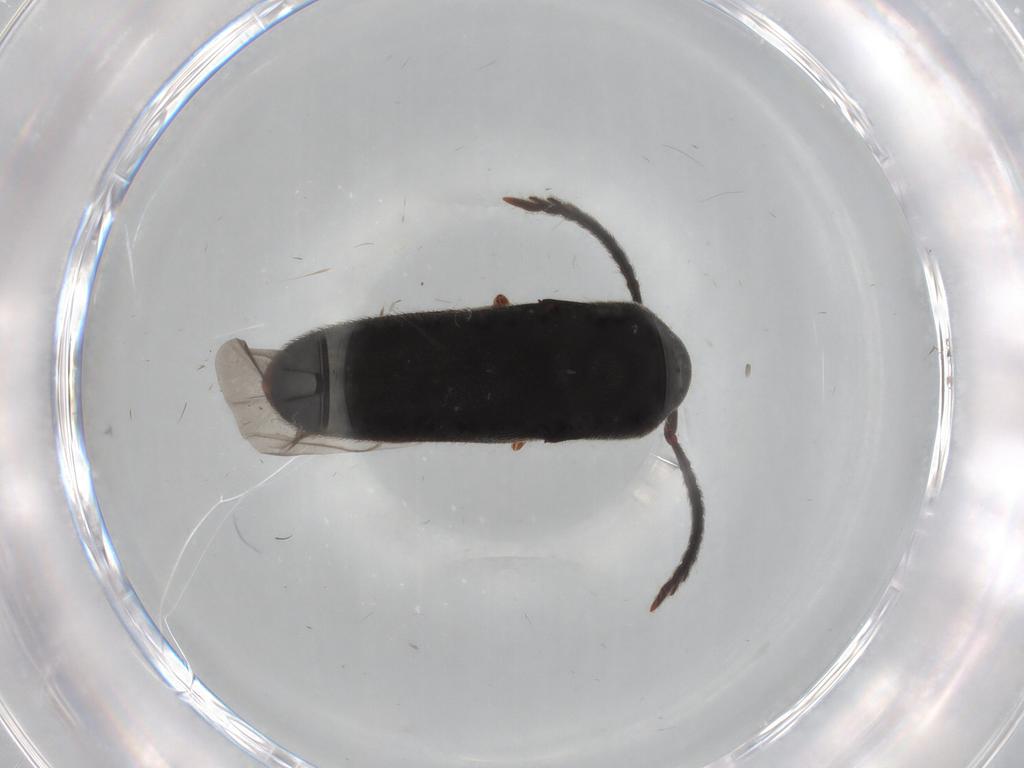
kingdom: Animalia
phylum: Arthropoda
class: Insecta
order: Coleoptera
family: Eucnemidae
